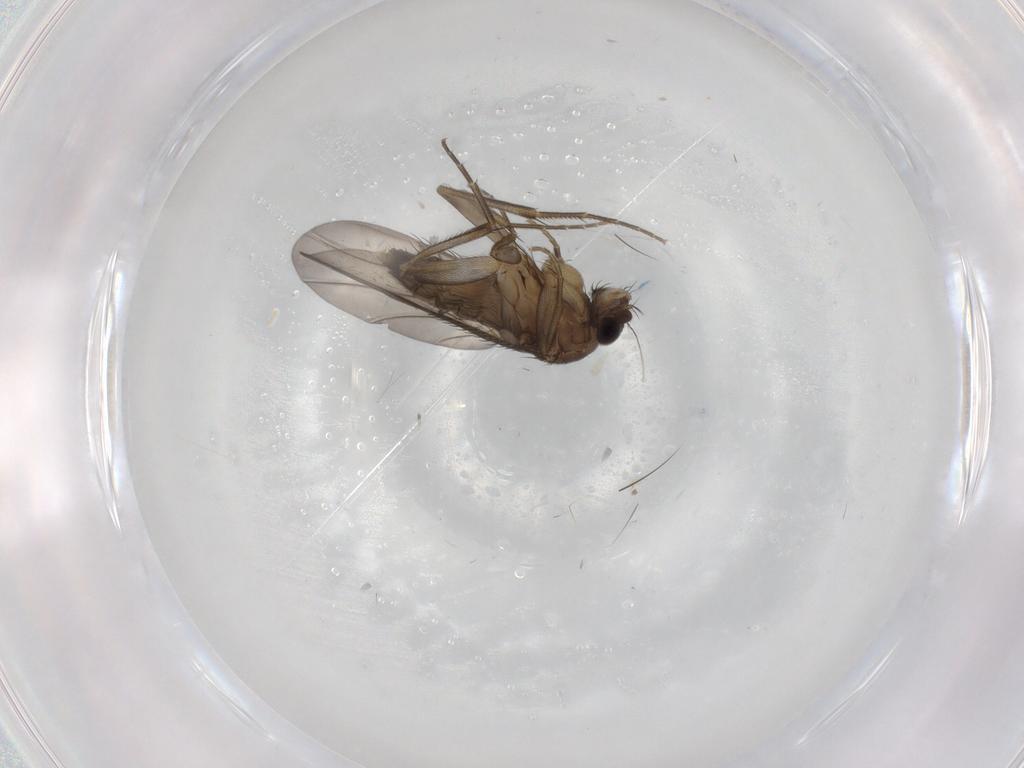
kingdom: Animalia
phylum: Arthropoda
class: Insecta
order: Diptera
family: Phoridae
